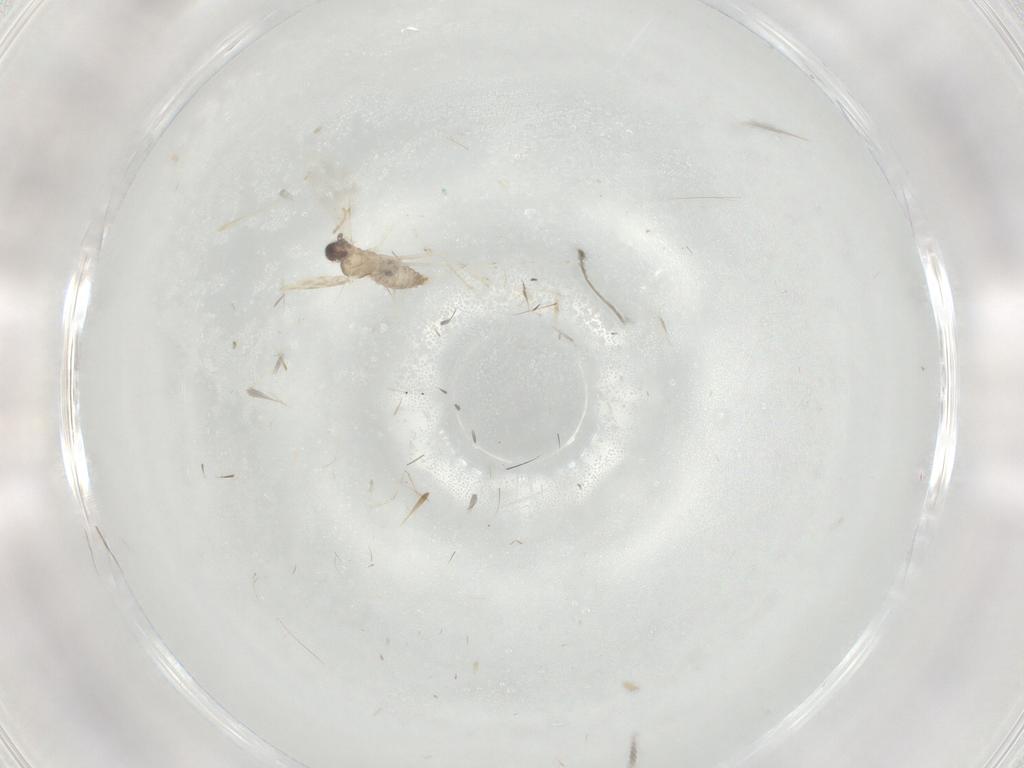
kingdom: Animalia
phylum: Arthropoda
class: Insecta
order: Diptera
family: Cecidomyiidae
